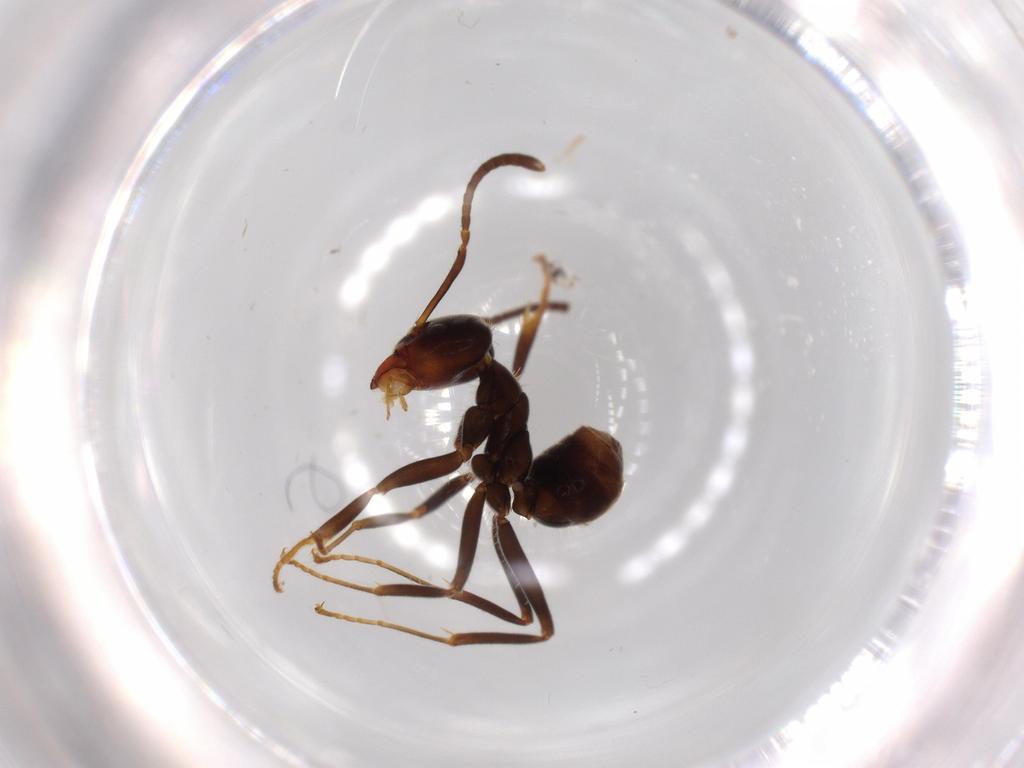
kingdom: Animalia
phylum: Arthropoda
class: Insecta
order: Hymenoptera
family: Formicidae
